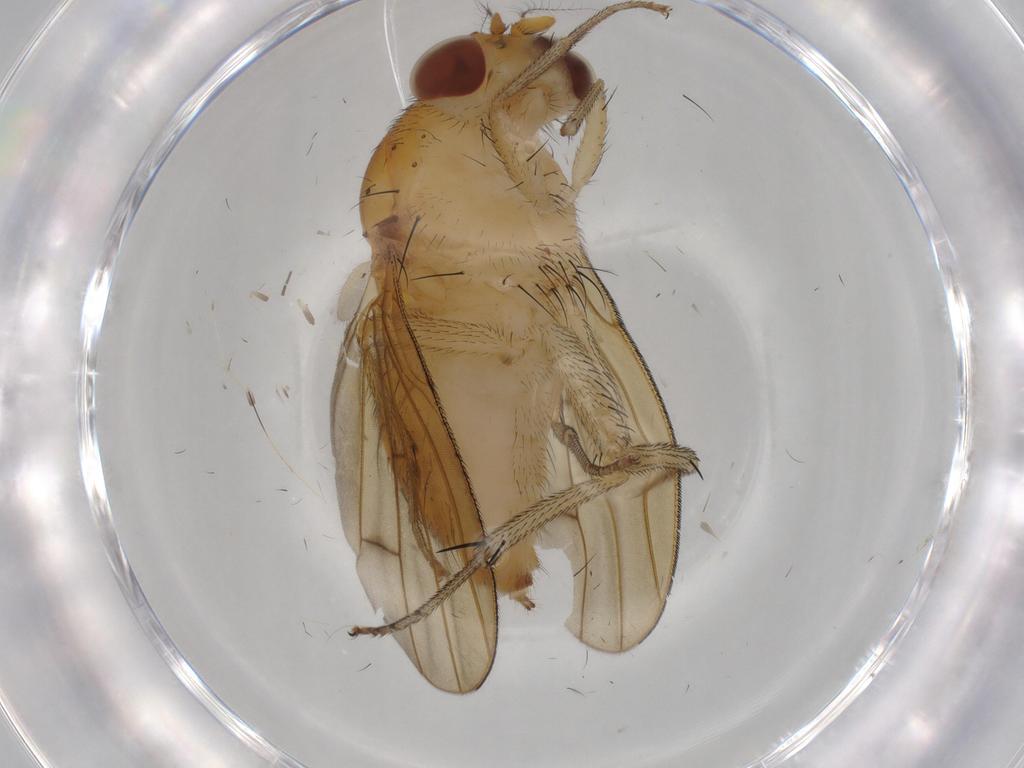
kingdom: Animalia
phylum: Arthropoda
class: Insecta
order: Diptera
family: Lauxaniidae
